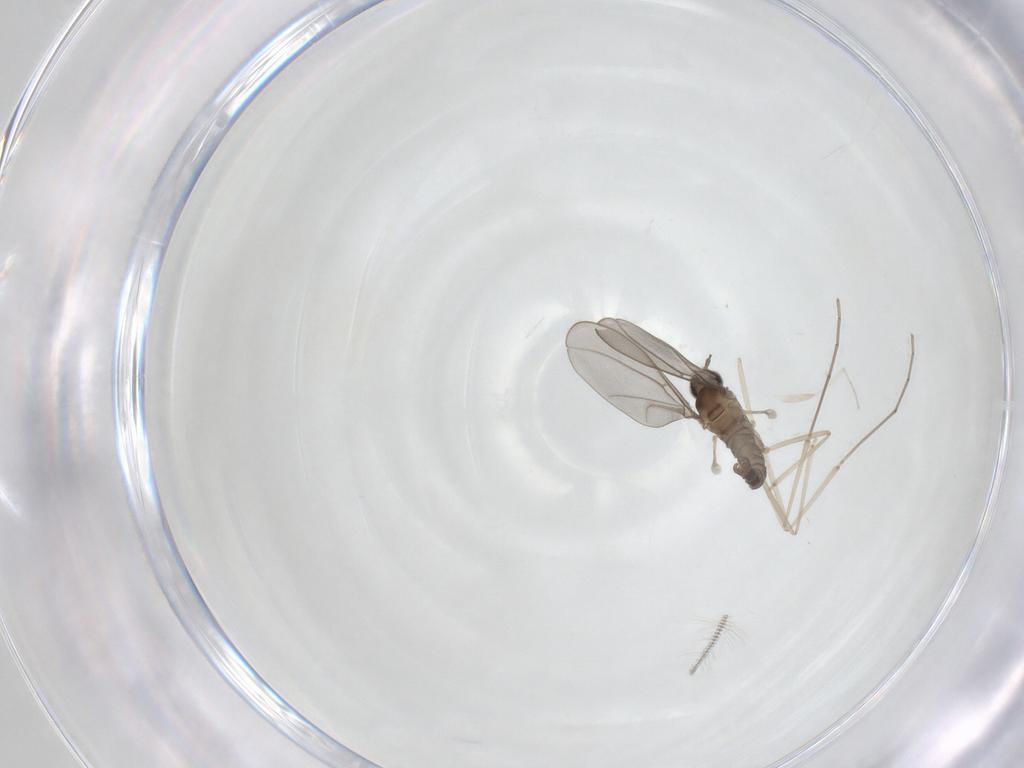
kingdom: Animalia
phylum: Arthropoda
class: Insecta
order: Diptera
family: Cecidomyiidae
